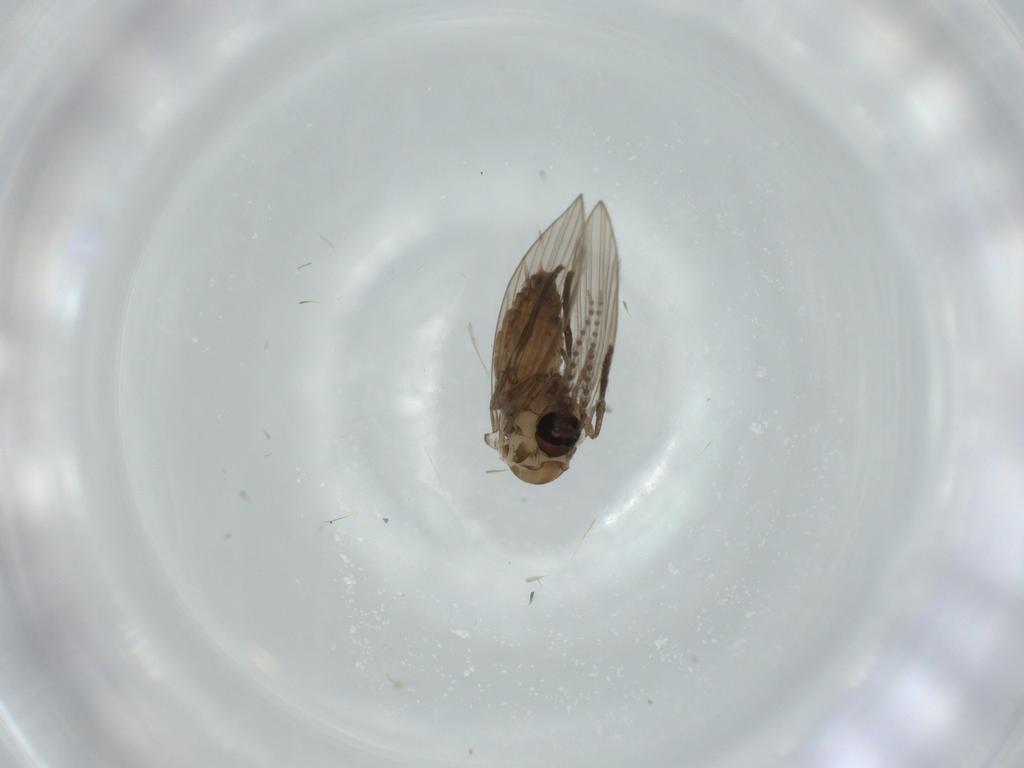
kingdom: Animalia
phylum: Arthropoda
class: Insecta
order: Diptera
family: Psychodidae
